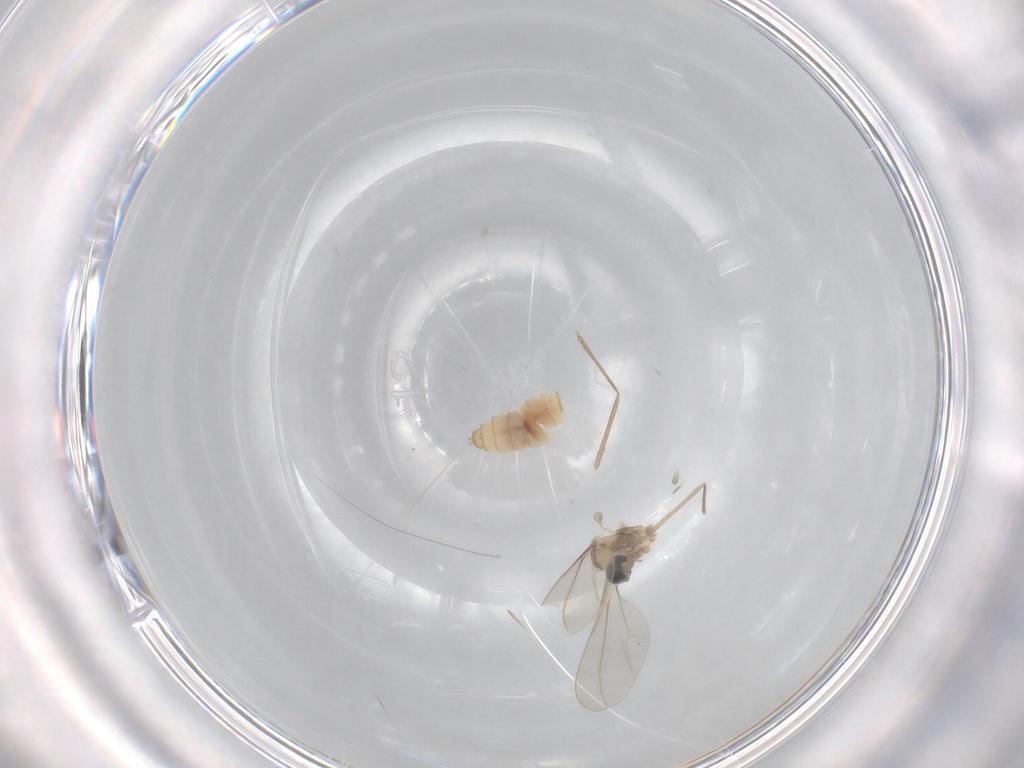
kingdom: Animalia
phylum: Arthropoda
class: Insecta
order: Diptera
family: Cecidomyiidae
